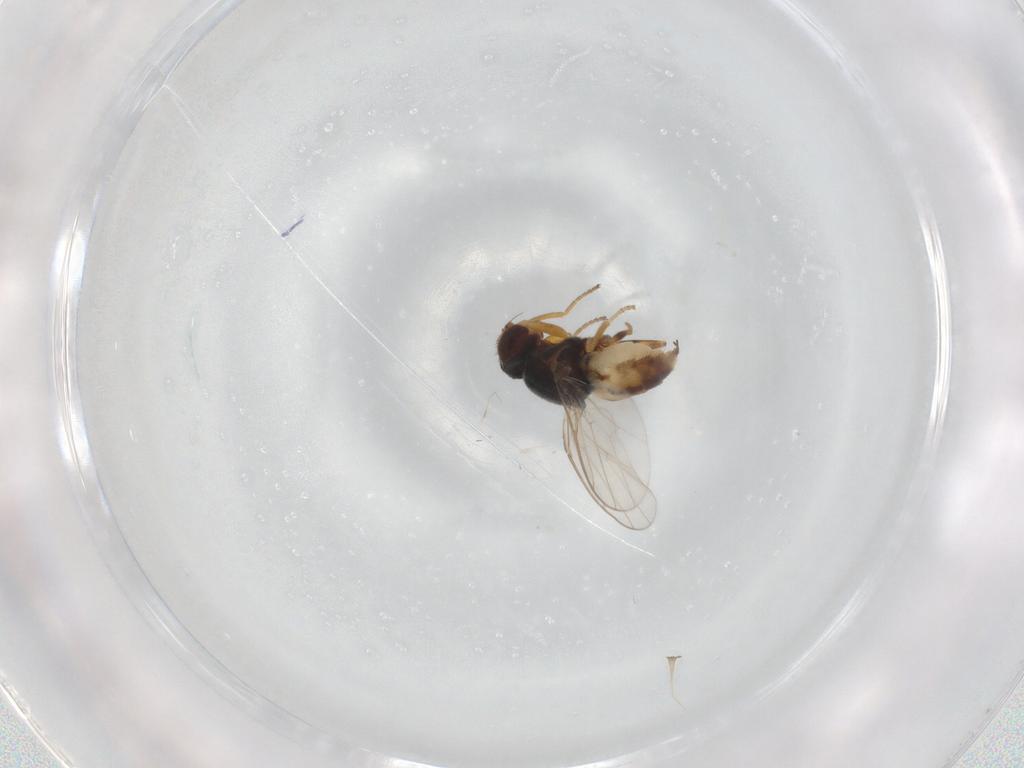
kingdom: Animalia
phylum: Arthropoda
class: Insecta
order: Diptera
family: Chloropidae
